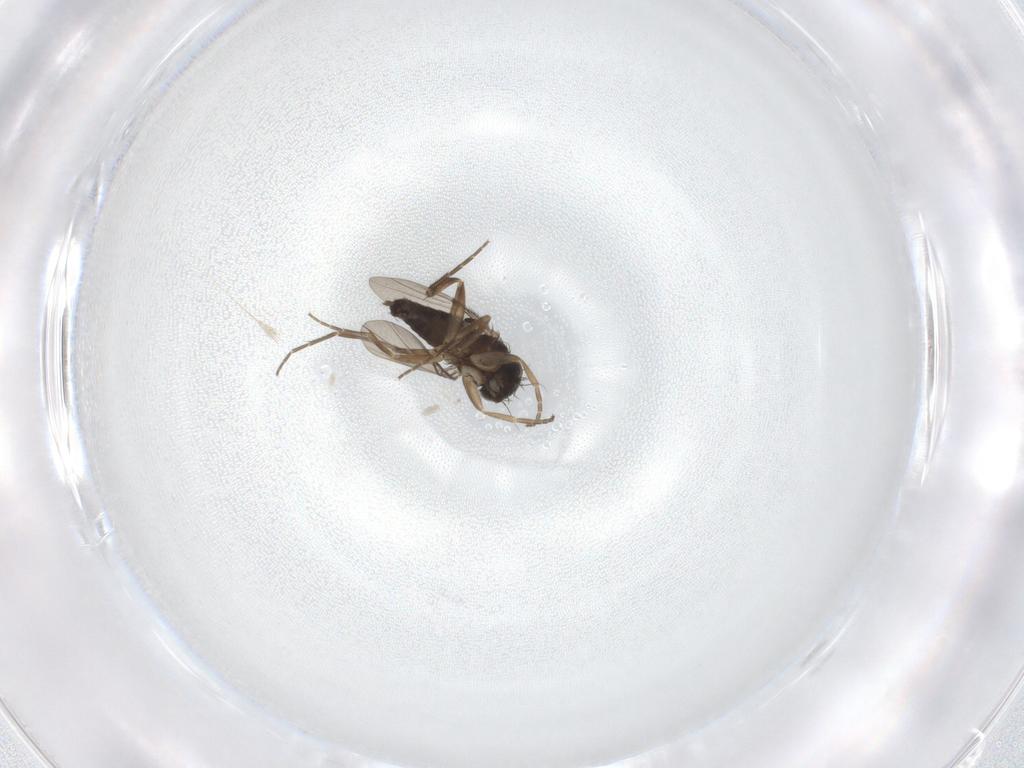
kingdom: Animalia
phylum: Arthropoda
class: Insecta
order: Diptera
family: Phoridae
